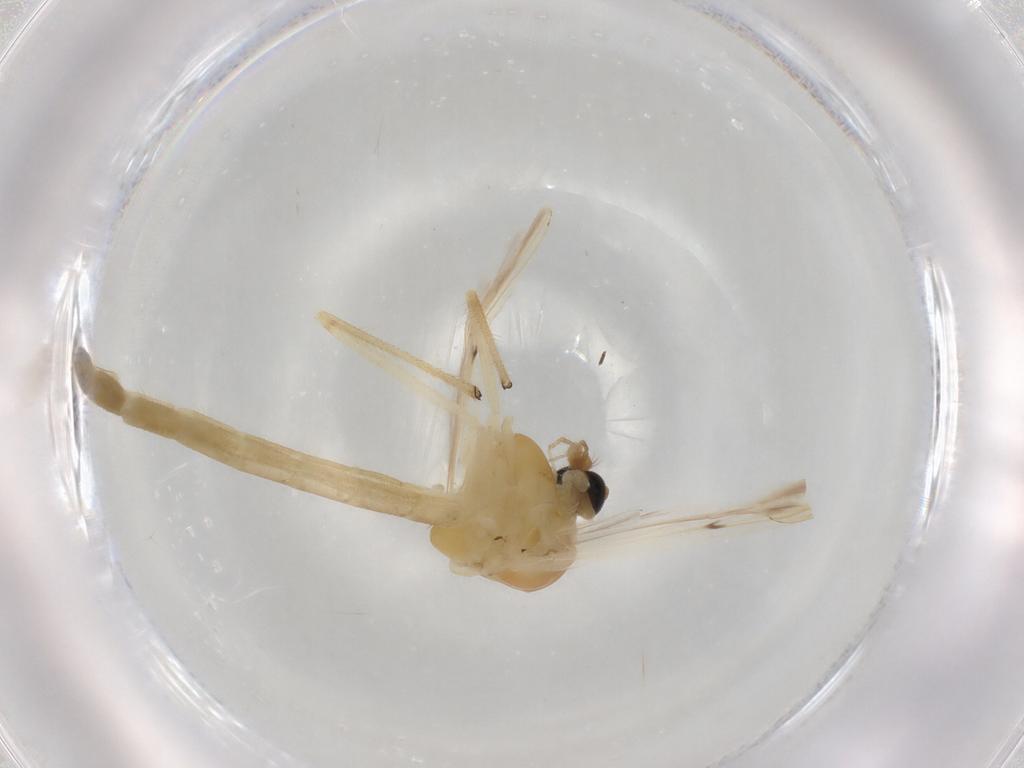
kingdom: Animalia
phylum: Arthropoda
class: Insecta
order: Diptera
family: Muscidae
